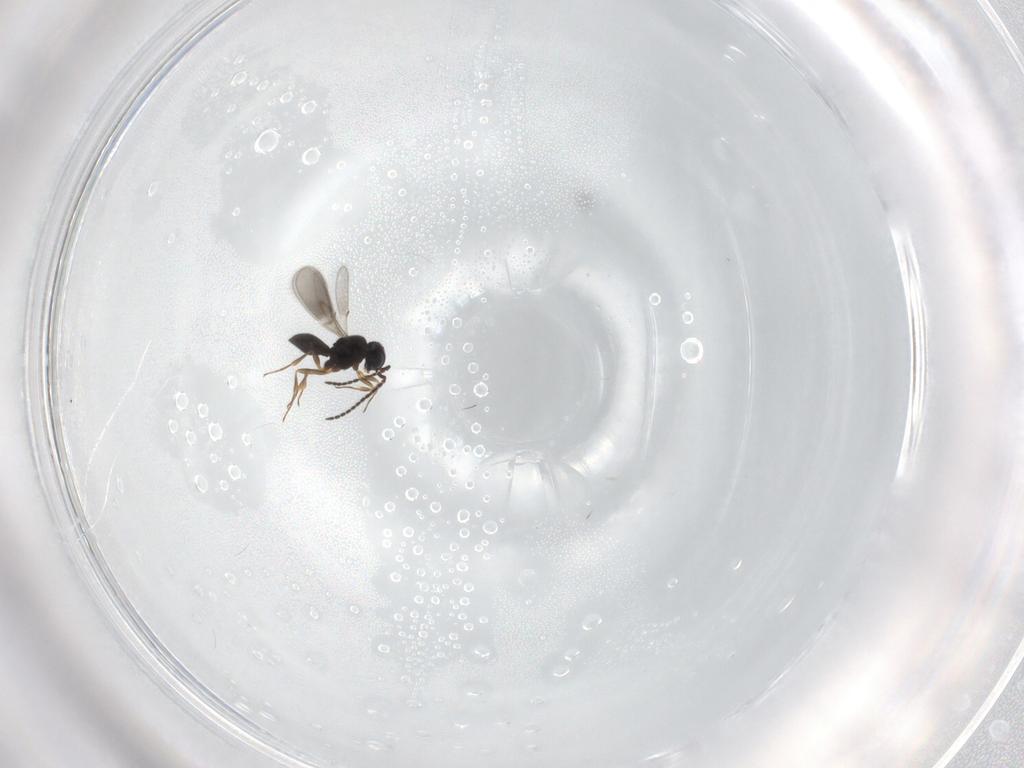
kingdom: Animalia
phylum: Arthropoda
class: Insecta
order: Hymenoptera
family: Scelionidae
